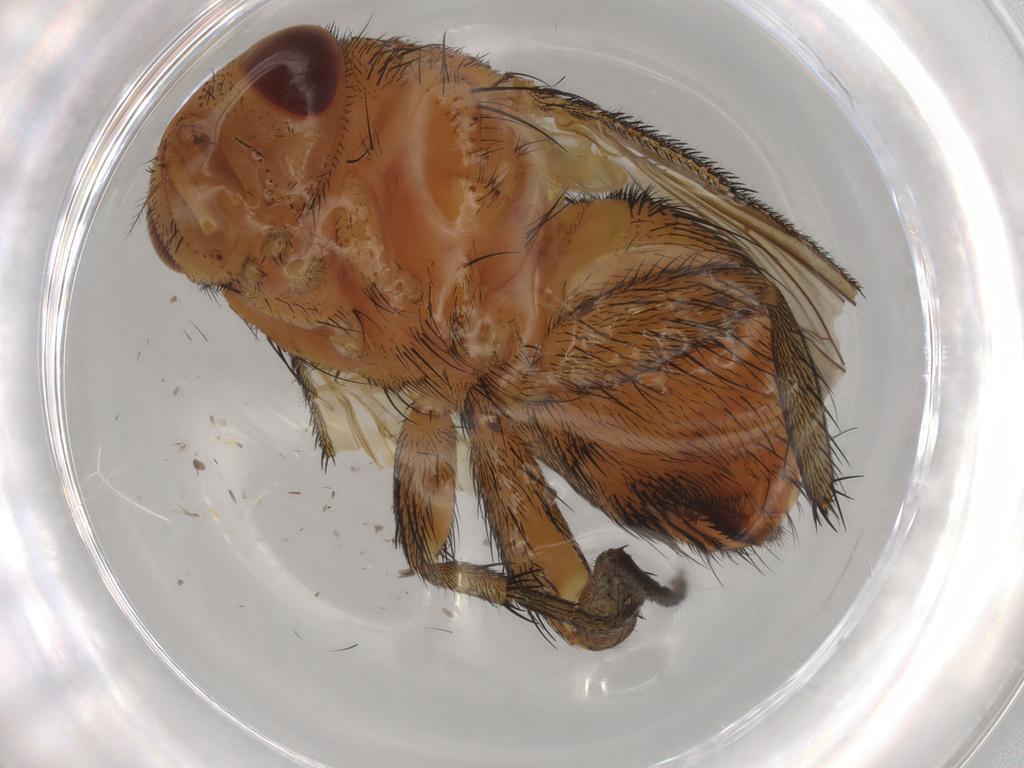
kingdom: Animalia
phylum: Arthropoda
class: Insecta
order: Diptera
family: Calliphoridae
